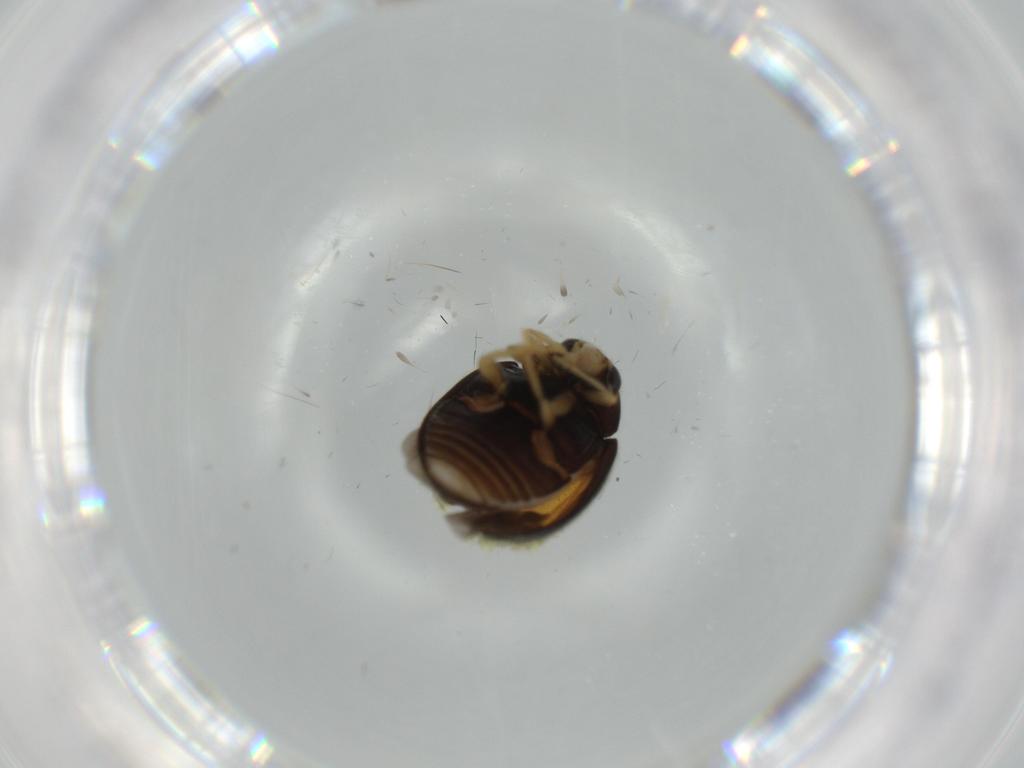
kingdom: Animalia
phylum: Arthropoda
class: Insecta
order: Coleoptera
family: Coccinellidae
